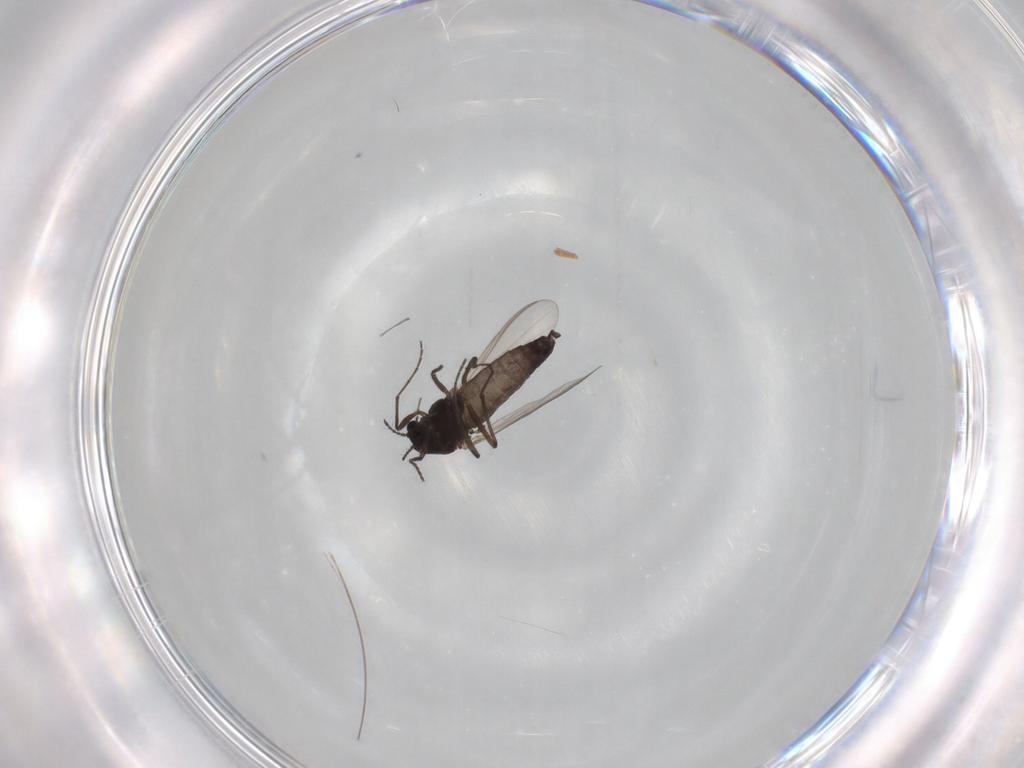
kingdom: Animalia
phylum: Arthropoda
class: Insecta
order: Diptera
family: Chironomidae
